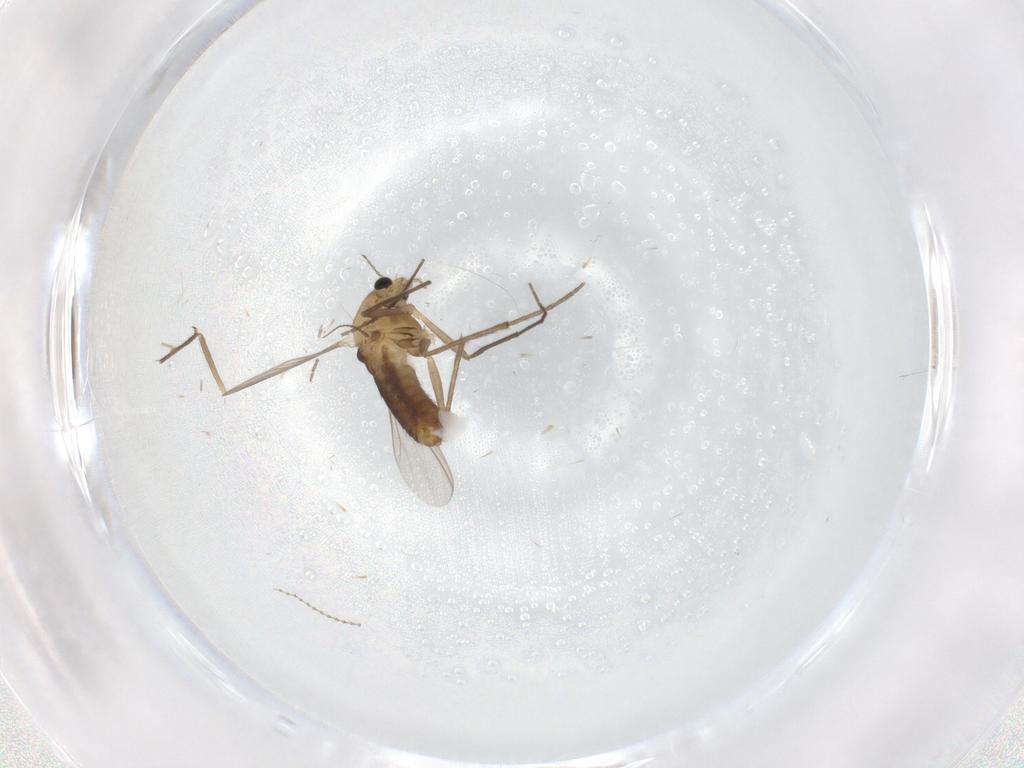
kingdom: Animalia
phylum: Arthropoda
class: Insecta
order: Diptera
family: Chironomidae
